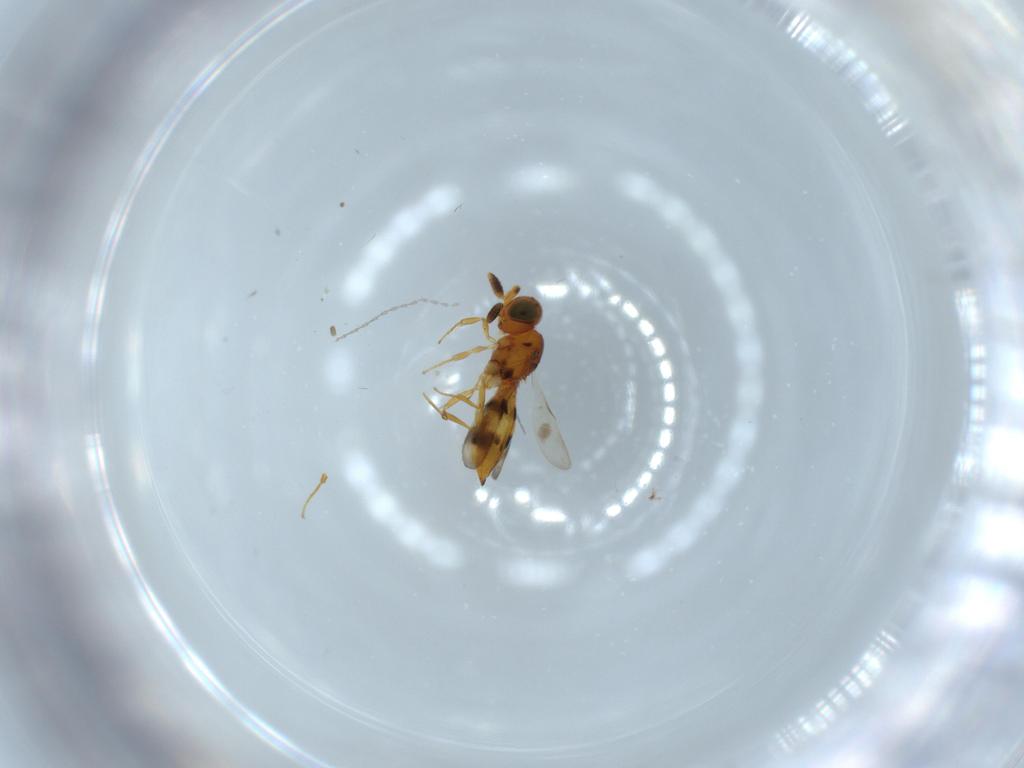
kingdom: Animalia
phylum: Arthropoda
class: Insecta
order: Hymenoptera
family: Scelionidae
